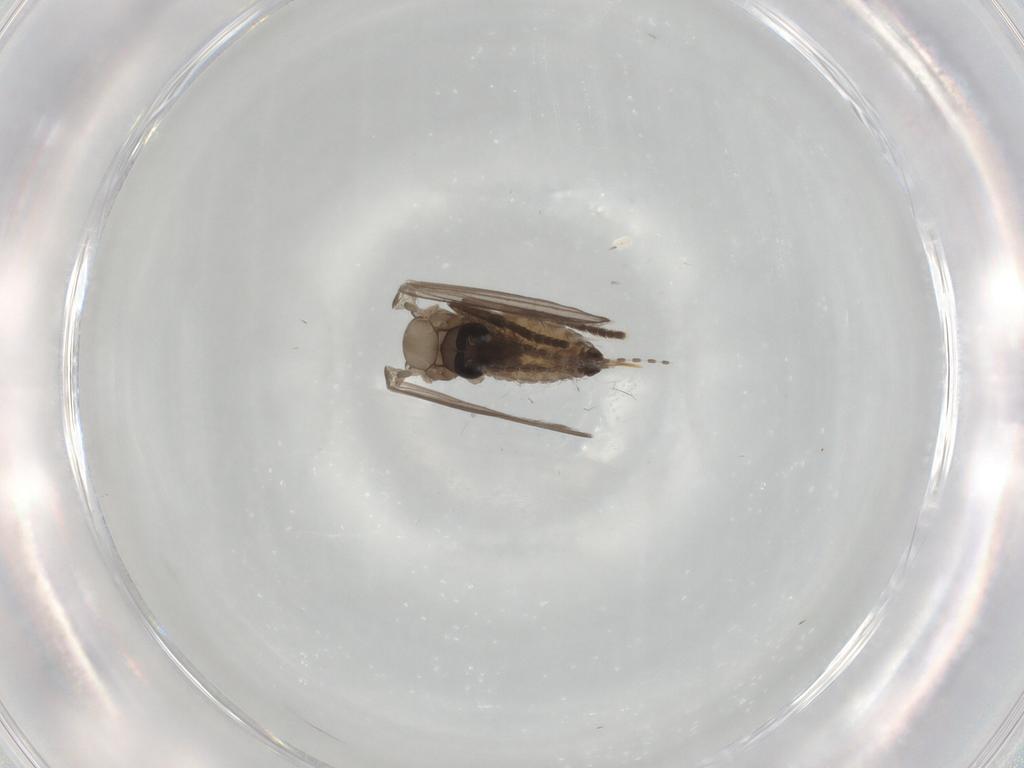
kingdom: Animalia
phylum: Arthropoda
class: Insecta
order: Diptera
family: Psychodidae
